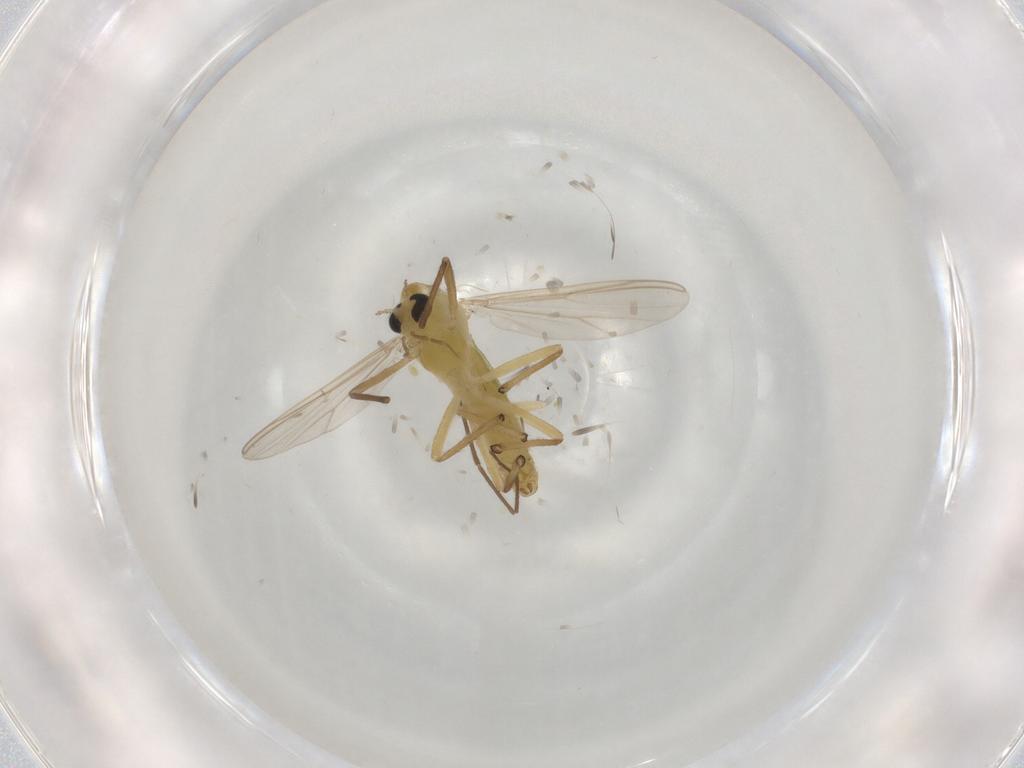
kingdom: Animalia
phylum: Arthropoda
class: Insecta
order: Diptera
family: Chironomidae
